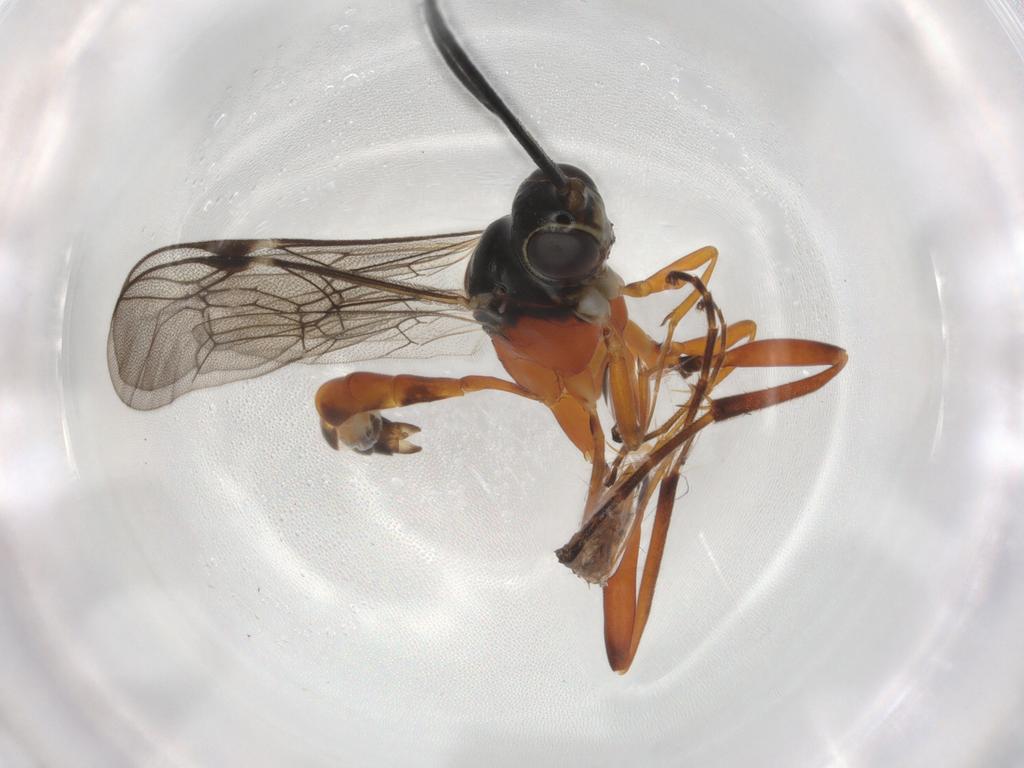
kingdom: Animalia
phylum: Arthropoda
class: Insecta
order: Hymenoptera
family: Ichneumonidae
